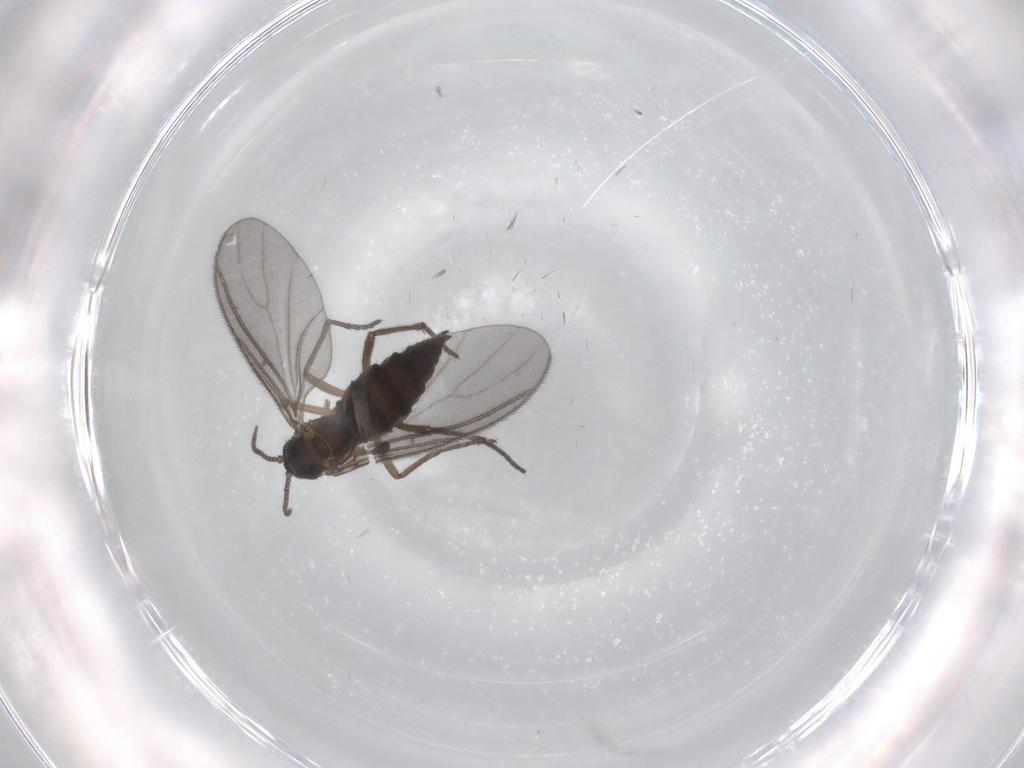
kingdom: Animalia
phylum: Arthropoda
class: Insecta
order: Diptera
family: Sciaridae
